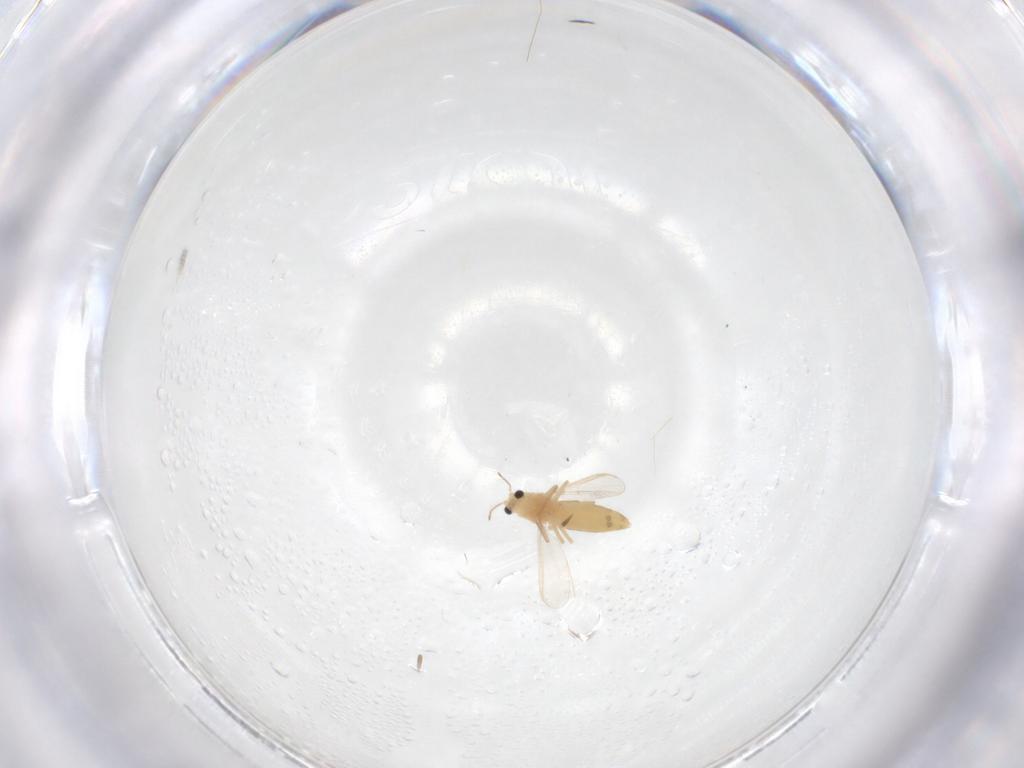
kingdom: Animalia
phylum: Arthropoda
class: Insecta
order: Diptera
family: Chironomidae
